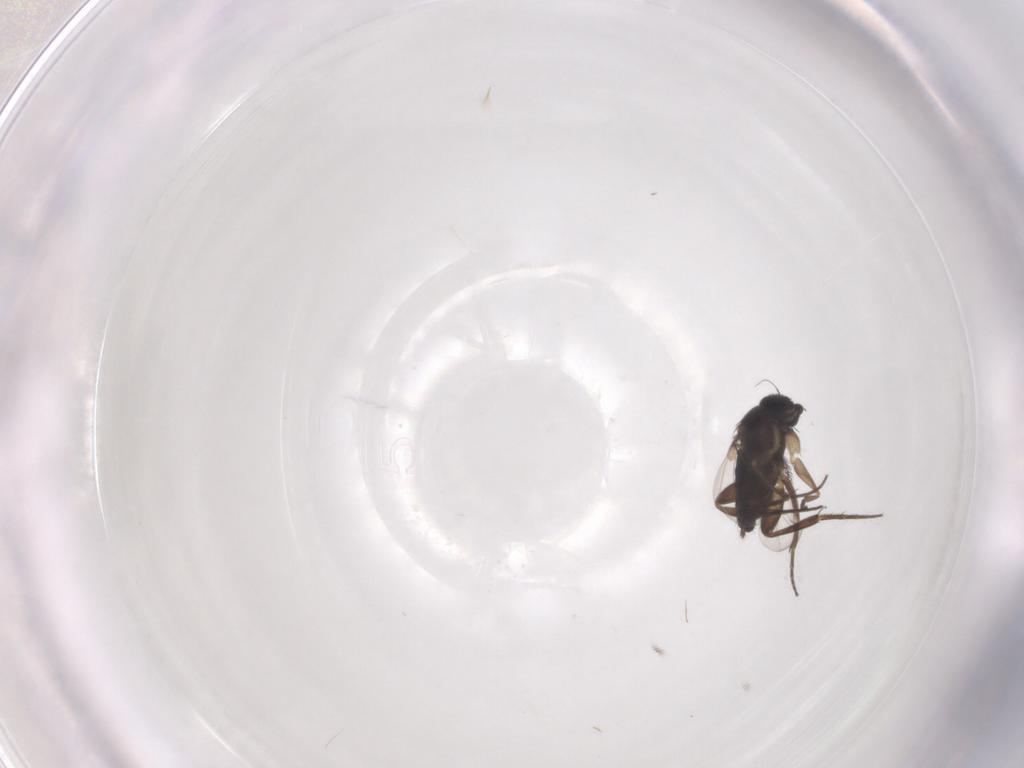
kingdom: Animalia
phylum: Arthropoda
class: Insecta
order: Diptera
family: Phoridae
